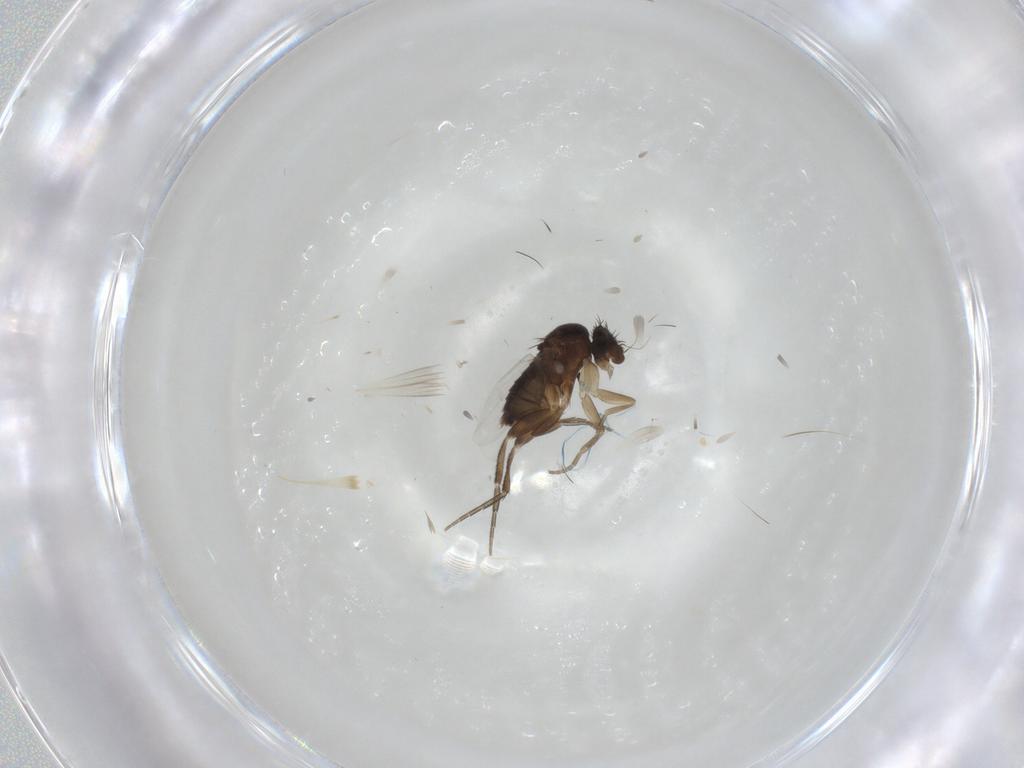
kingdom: Animalia
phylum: Arthropoda
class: Insecta
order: Diptera
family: Phoridae
